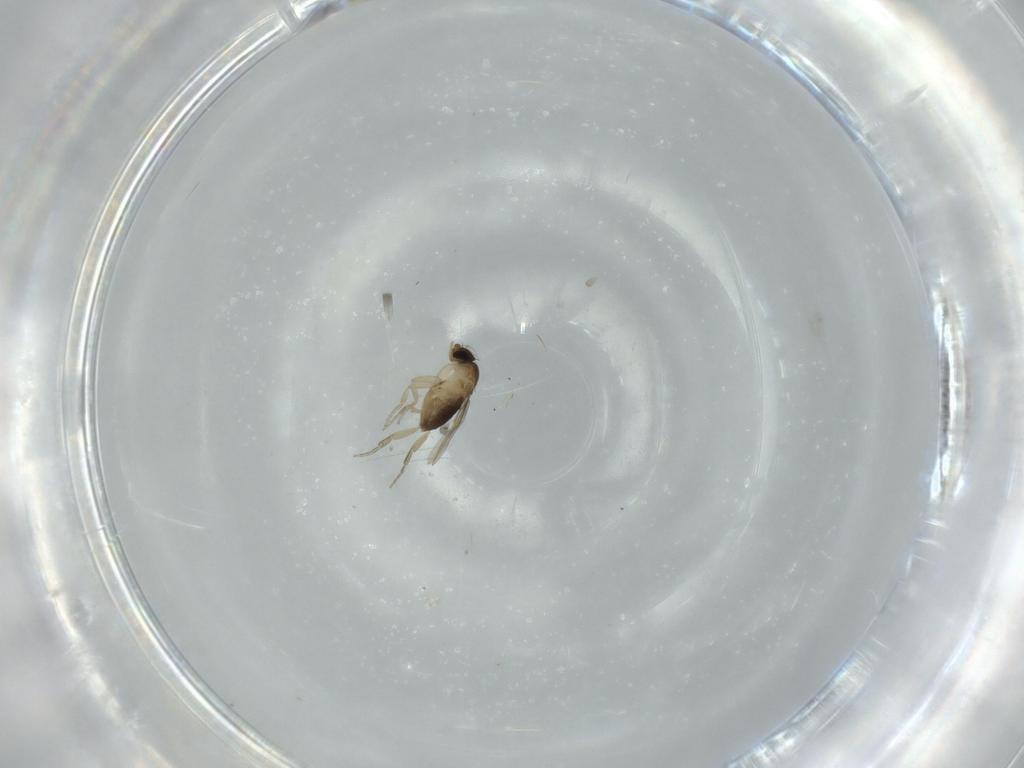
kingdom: Animalia
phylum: Arthropoda
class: Insecta
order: Diptera
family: Phoridae
